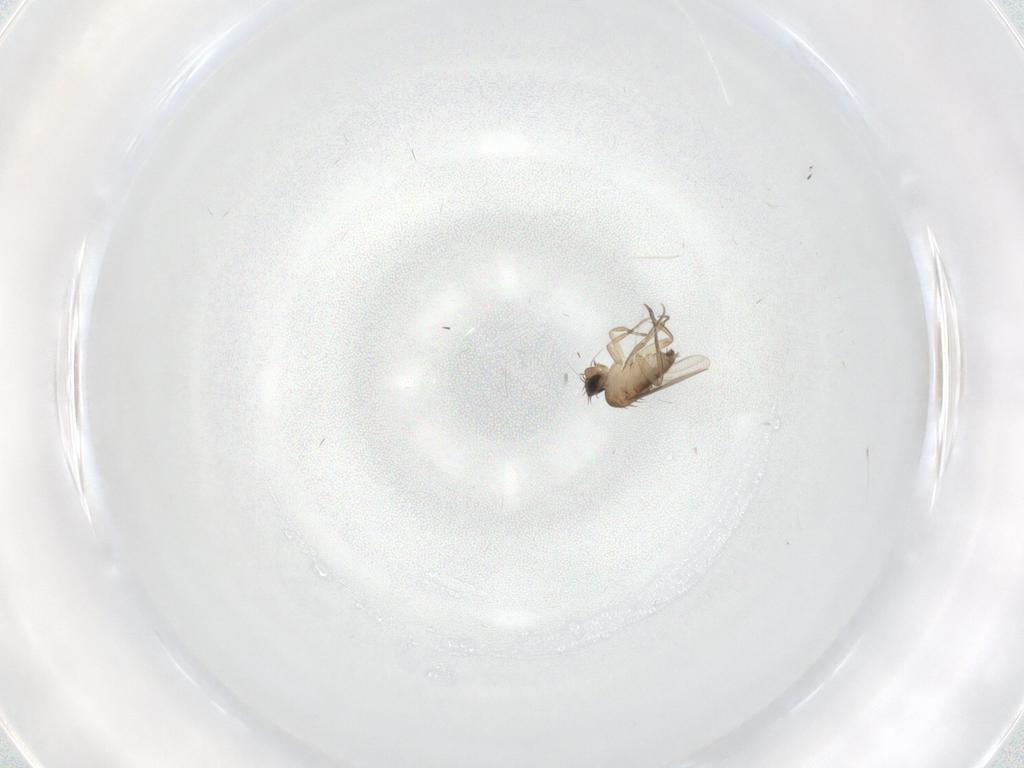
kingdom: Animalia
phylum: Arthropoda
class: Insecta
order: Diptera
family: Phoridae
